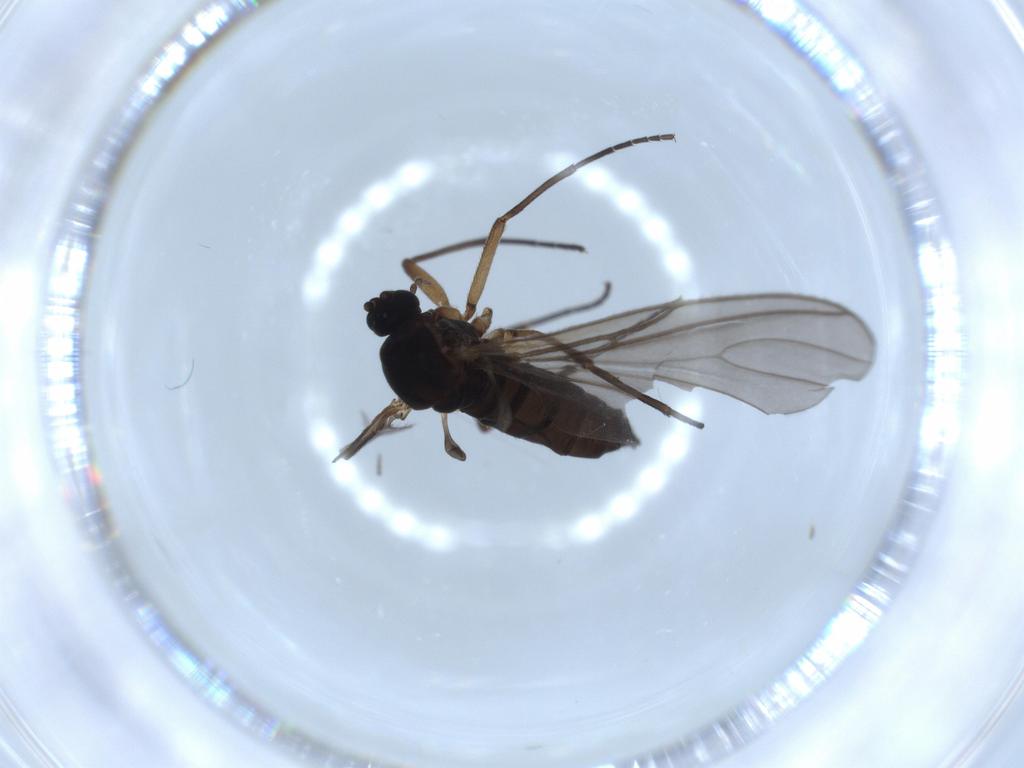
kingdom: Animalia
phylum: Arthropoda
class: Insecta
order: Diptera
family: Sciaridae
